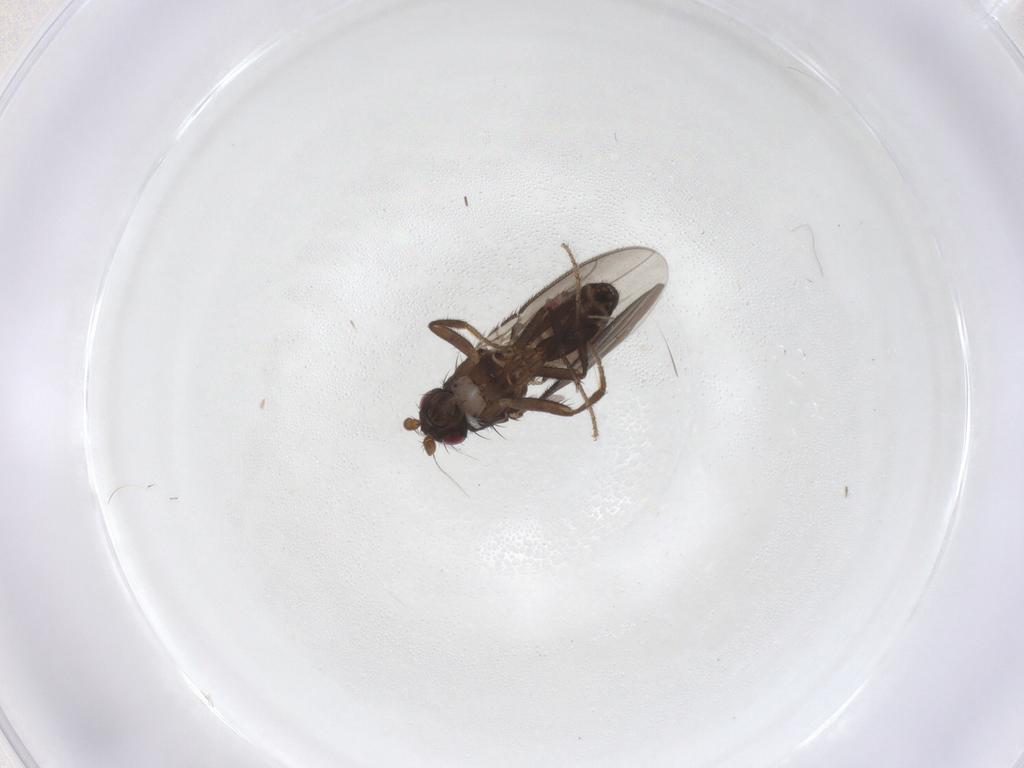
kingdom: Animalia
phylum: Arthropoda
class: Insecta
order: Diptera
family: Sphaeroceridae
